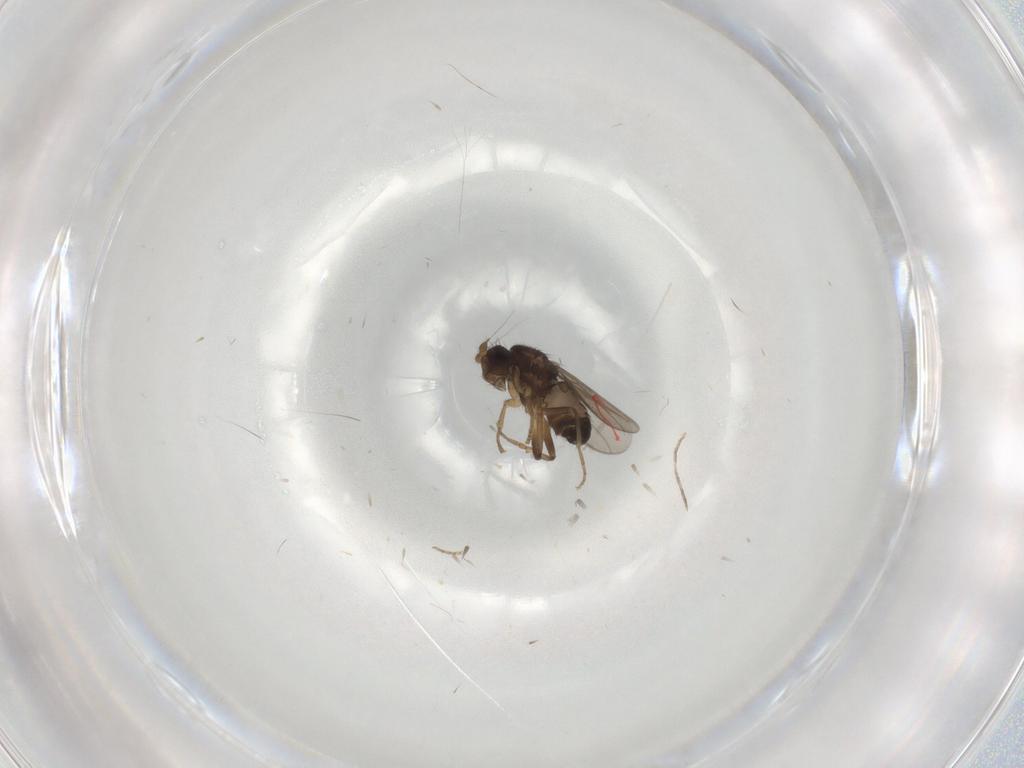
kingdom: Animalia
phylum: Arthropoda
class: Insecta
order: Diptera
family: Sphaeroceridae
